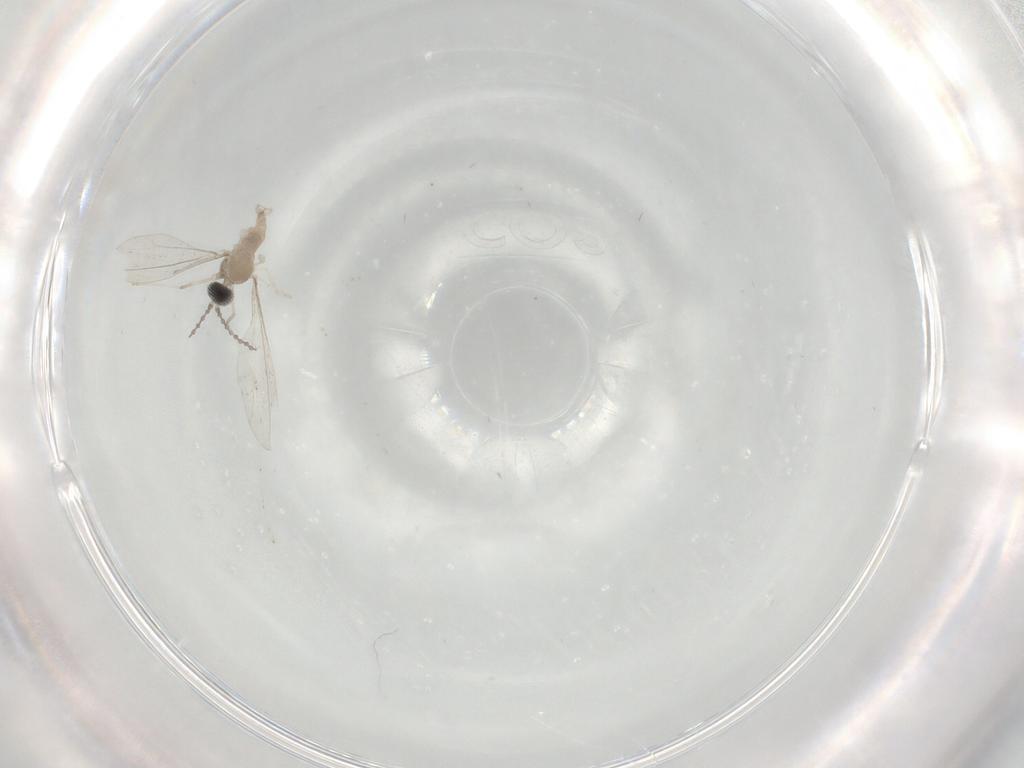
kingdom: Animalia
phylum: Arthropoda
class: Insecta
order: Diptera
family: Cecidomyiidae
